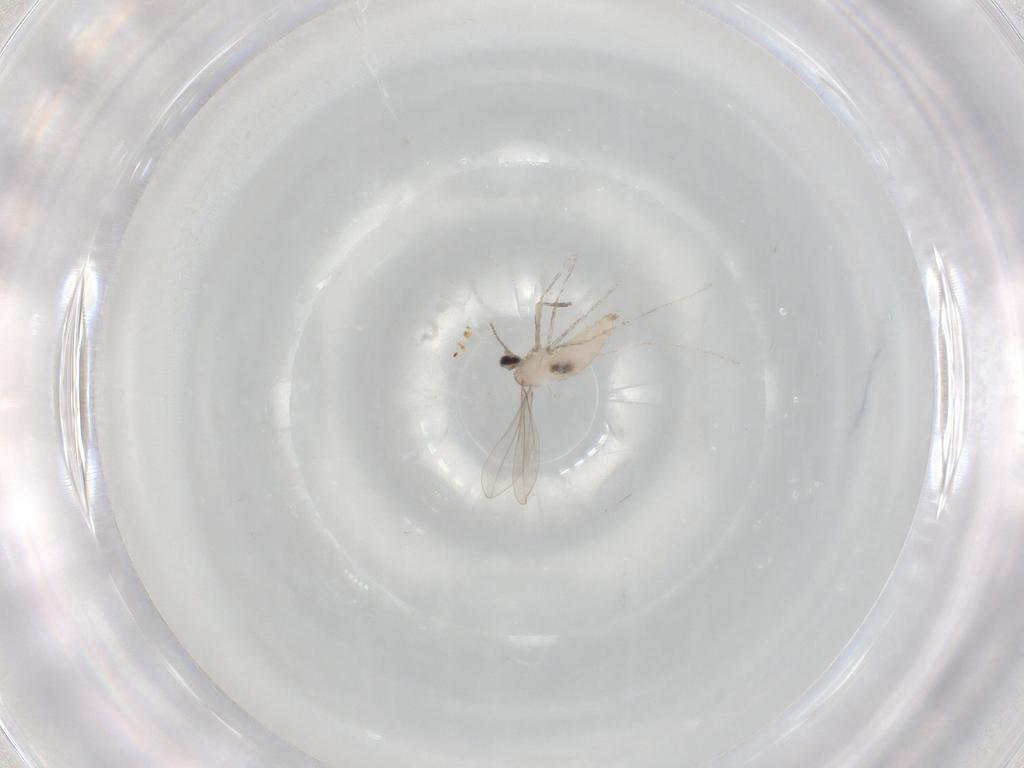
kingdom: Animalia
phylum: Arthropoda
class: Insecta
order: Diptera
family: Cecidomyiidae
